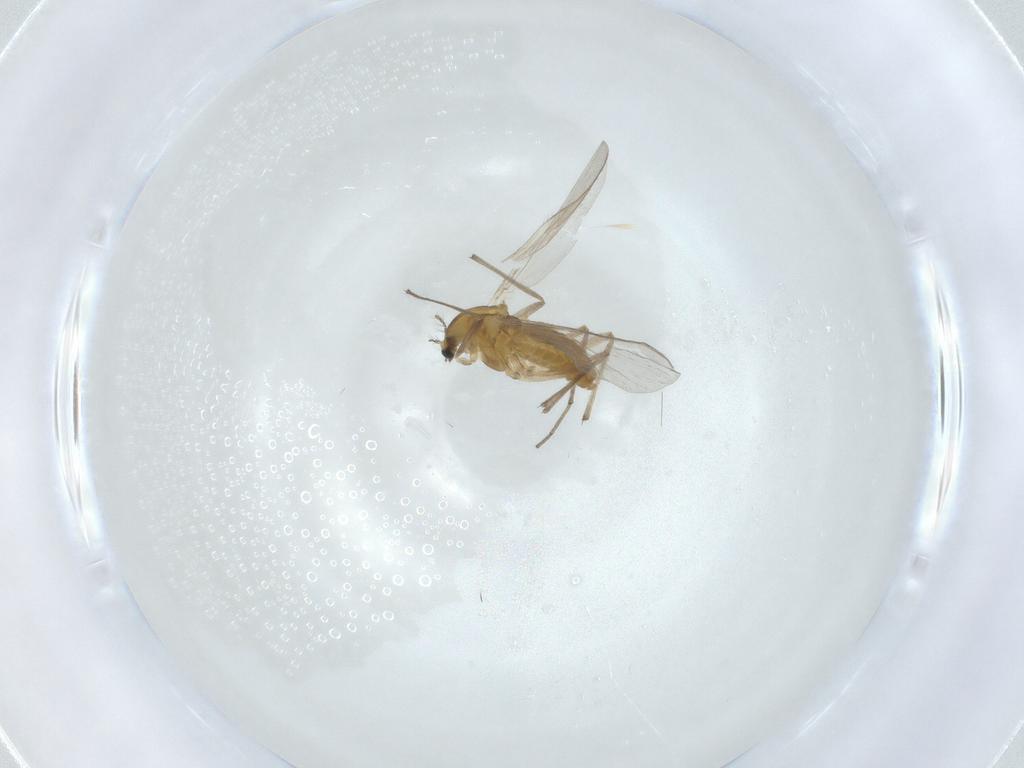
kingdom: Animalia
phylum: Arthropoda
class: Insecta
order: Diptera
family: Chironomidae
